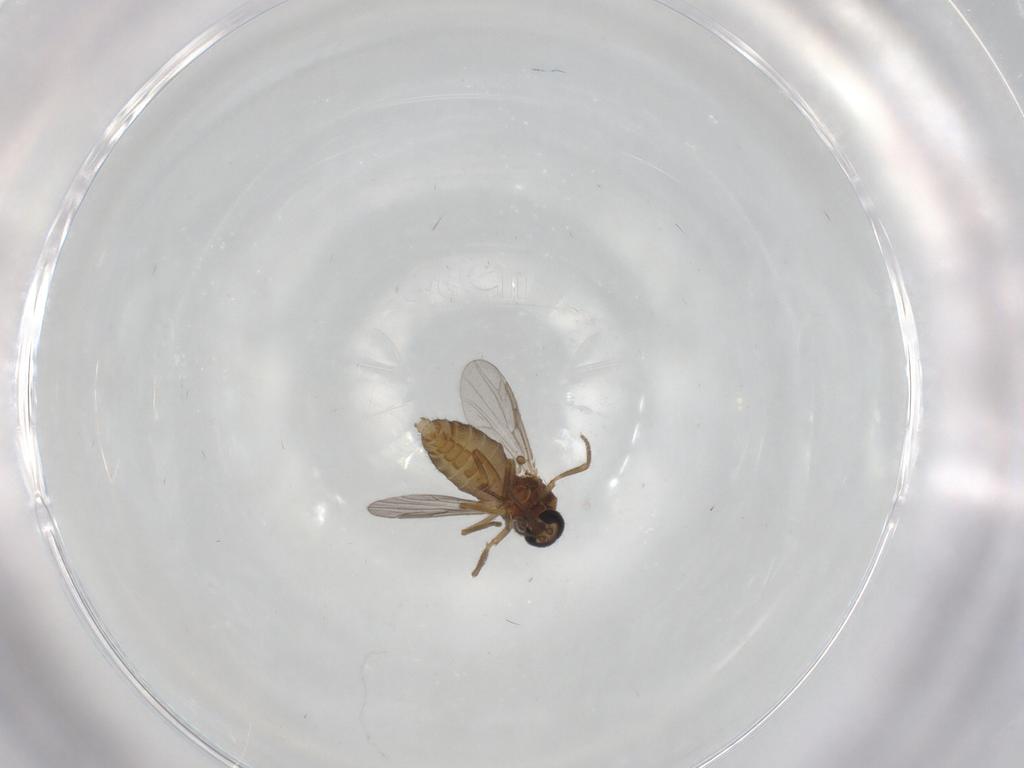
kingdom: Animalia
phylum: Arthropoda
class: Insecta
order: Diptera
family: Ceratopogonidae
